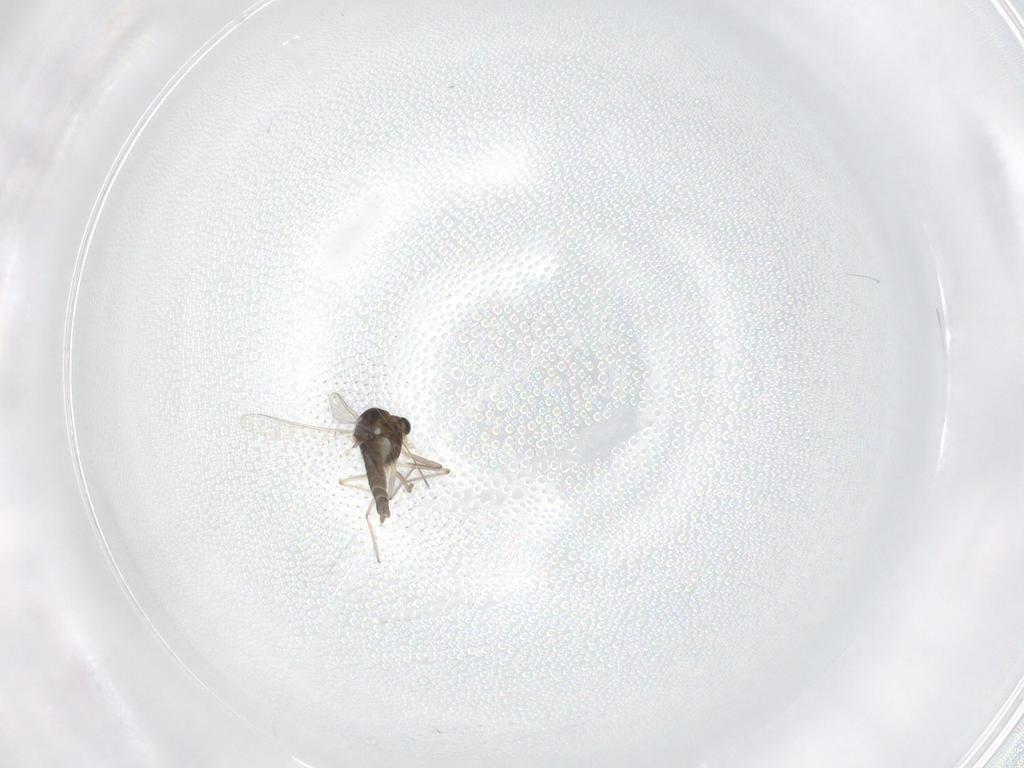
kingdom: Animalia
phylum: Arthropoda
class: Insecta
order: Diptera
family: Chironomidae
